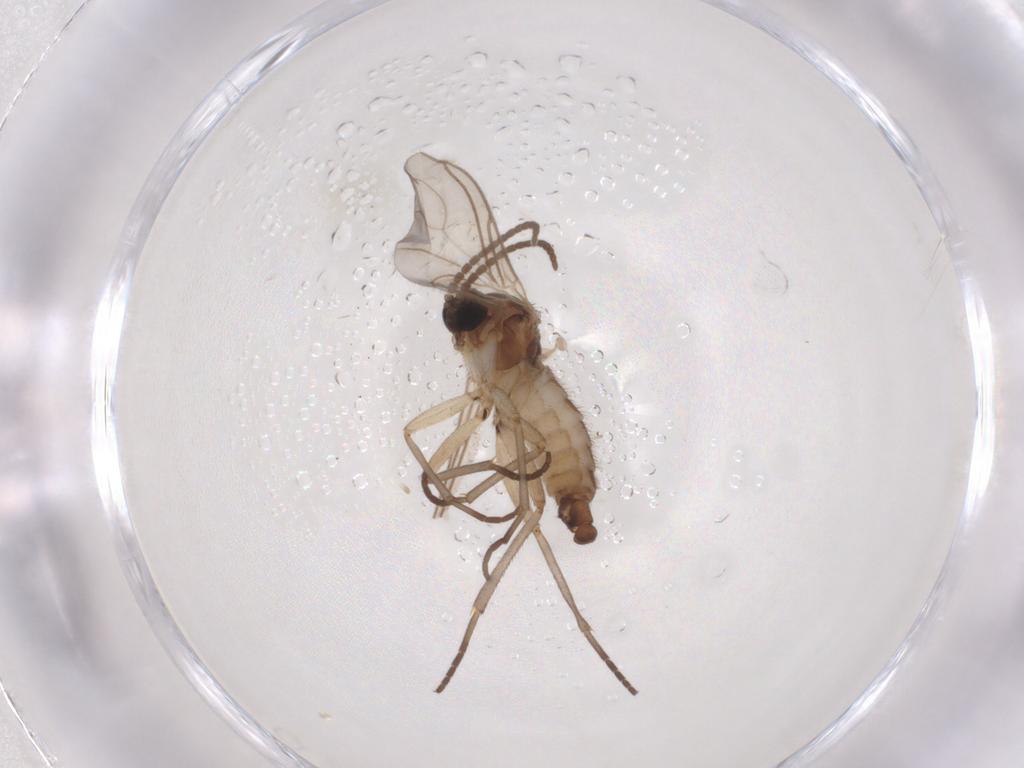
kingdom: Animalia
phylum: Arthropoda
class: Insecta
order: Diptera
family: Sciaridae
